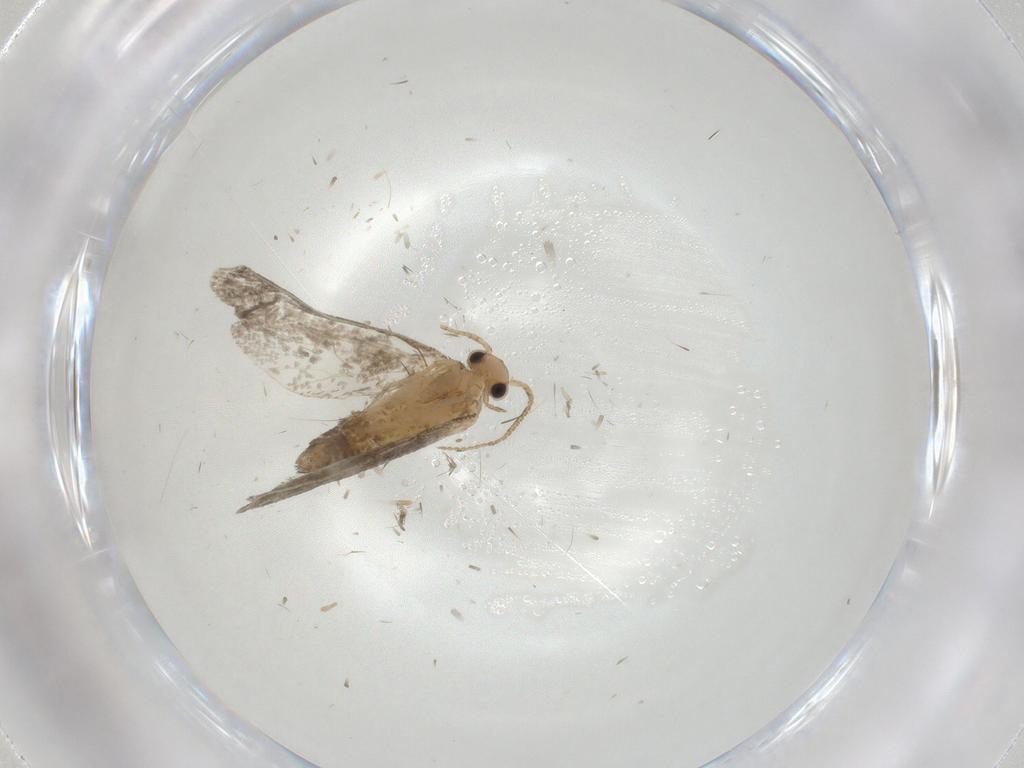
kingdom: Animalia
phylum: Arthropoda
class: Insecta
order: Lepidoptera
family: Psychidae
